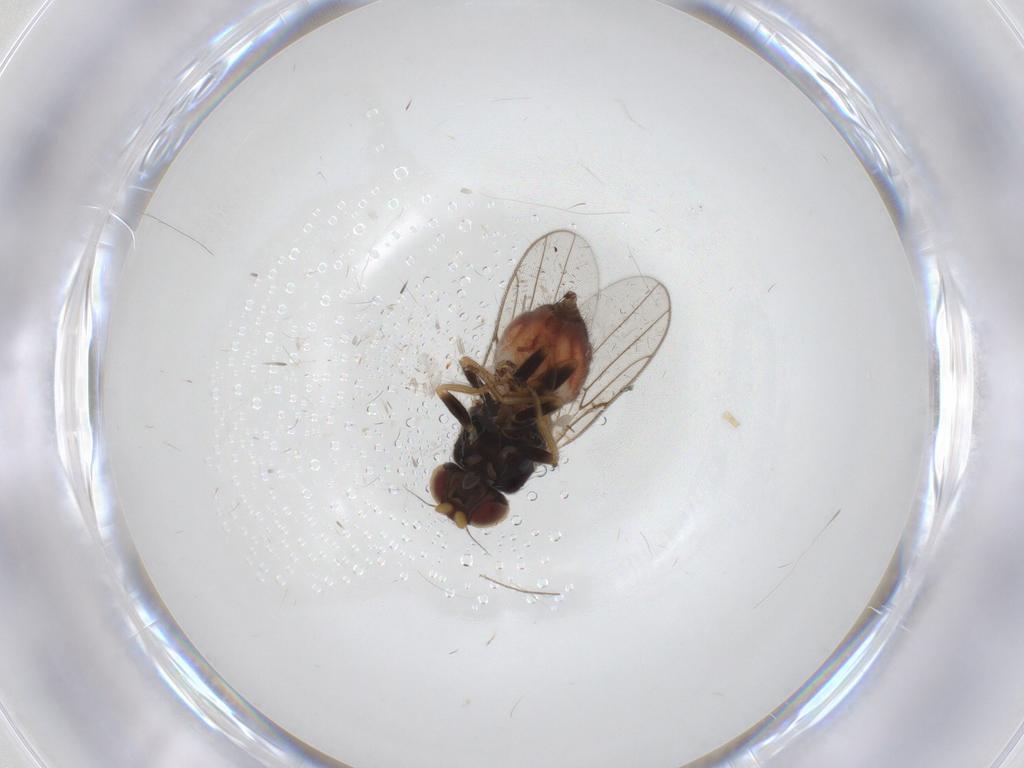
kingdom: Animalia
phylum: Arthropoda
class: Insecta
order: Diptera
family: Chloropidae
